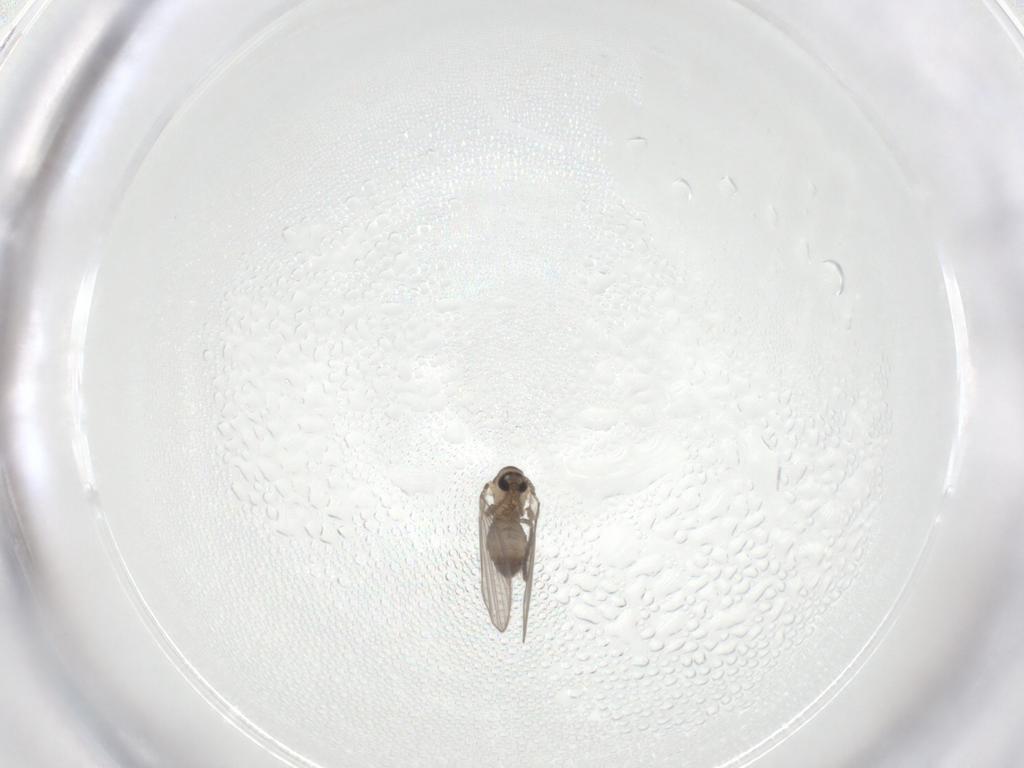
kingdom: Animalia
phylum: Arthropoda
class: Insecta
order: Diptera
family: Psychodidae
